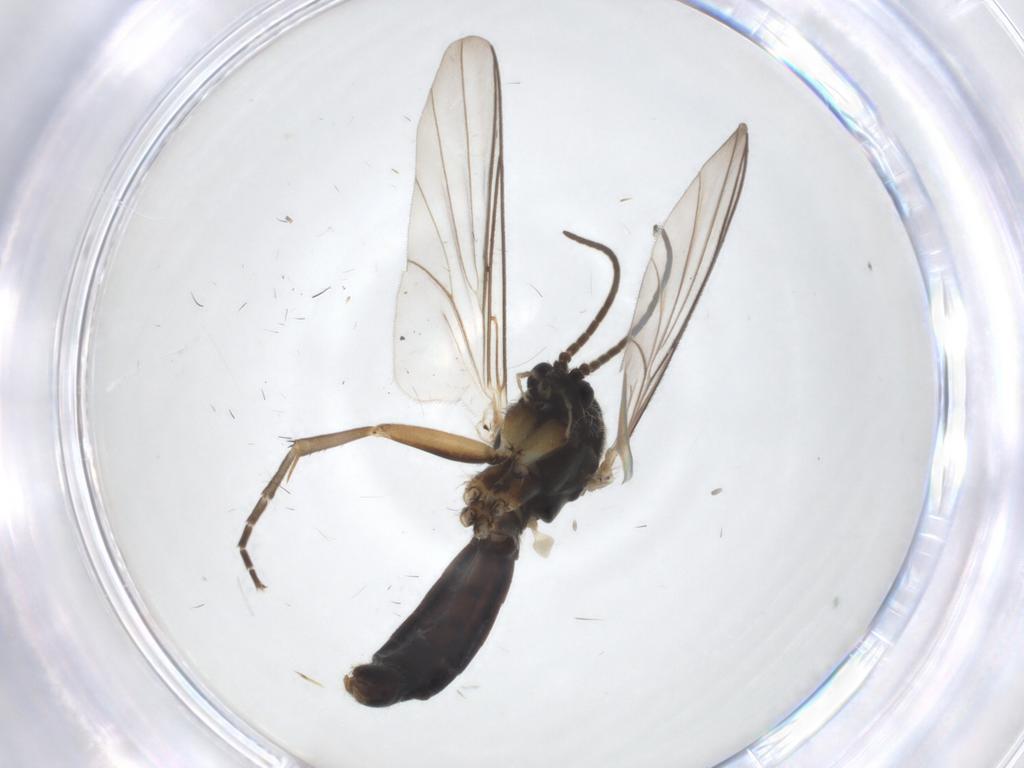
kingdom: Animalia
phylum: Arthropoda
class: Insecta
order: Diptera
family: Mycetophilidae
